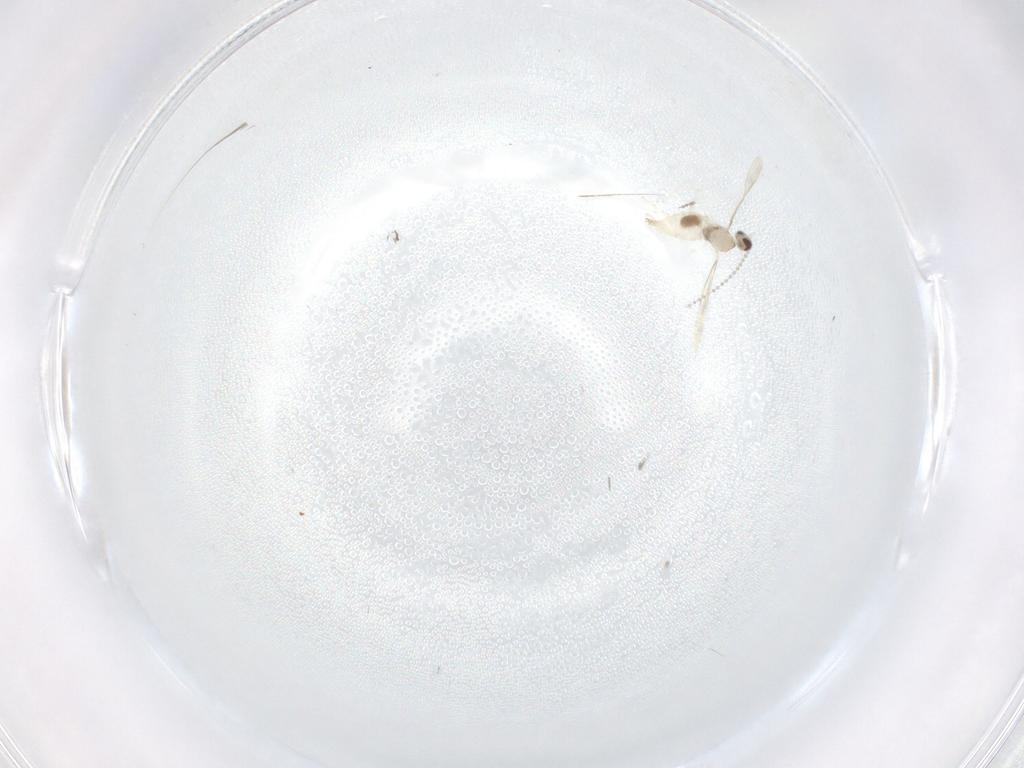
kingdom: Animalia
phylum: Arthropoda
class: Insecta
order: Diptera
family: Cecidomyiidae
